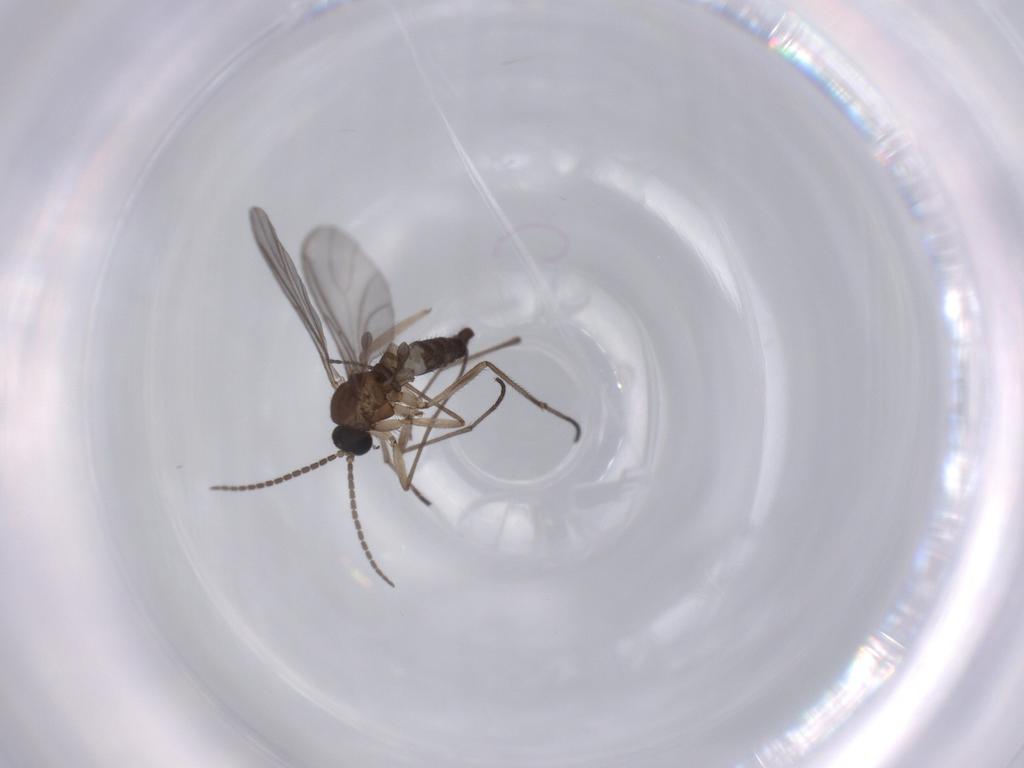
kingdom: Animalia
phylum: Arthropoda
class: Insecta
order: Diptera
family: Sciaridae
